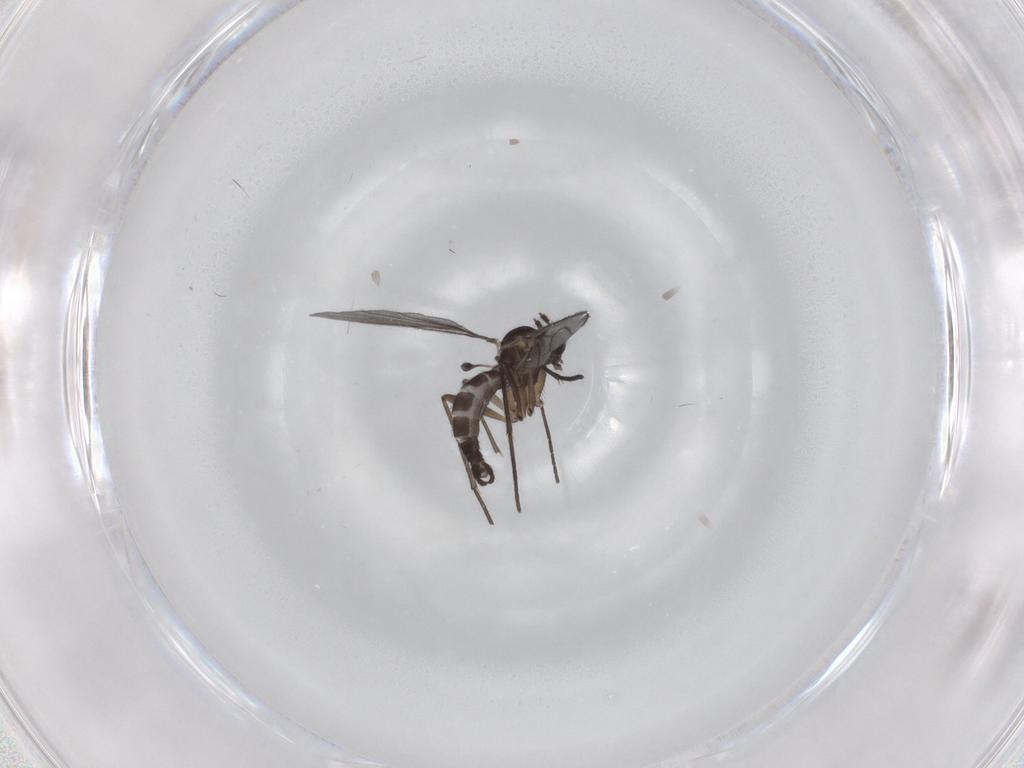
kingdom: Animalia
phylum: Arthropoda
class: Insecta
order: Diptera
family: Sciaridae
